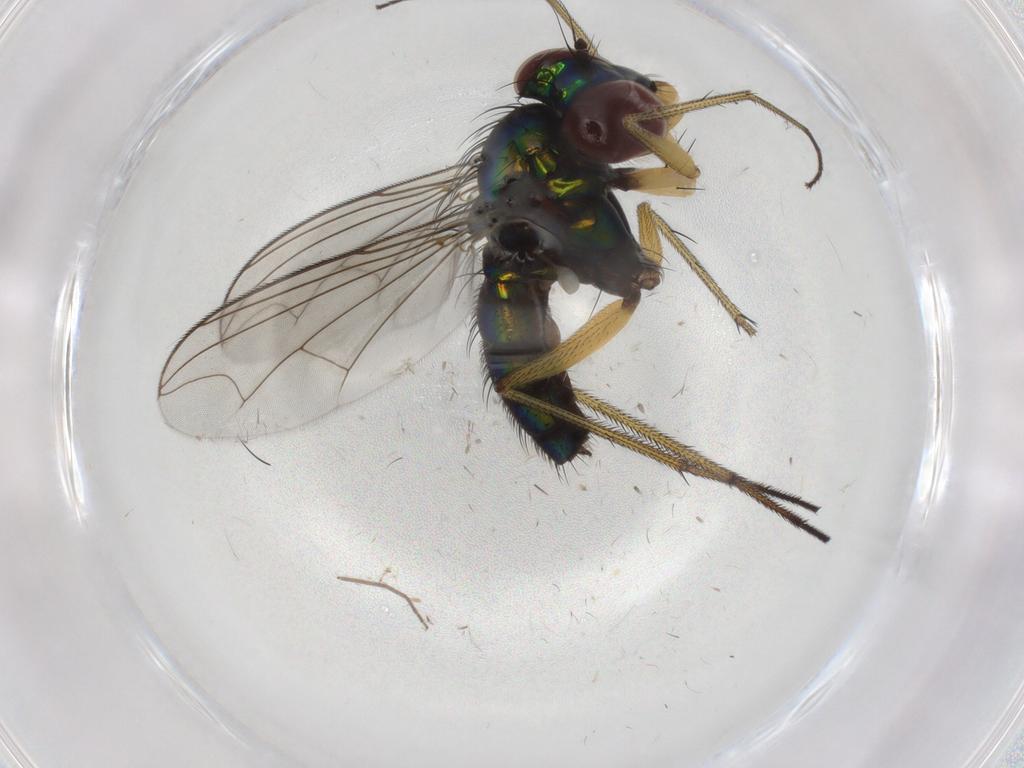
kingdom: Animalia
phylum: Arthropoda
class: Insecta
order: Diptera
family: Dolichopodidae
